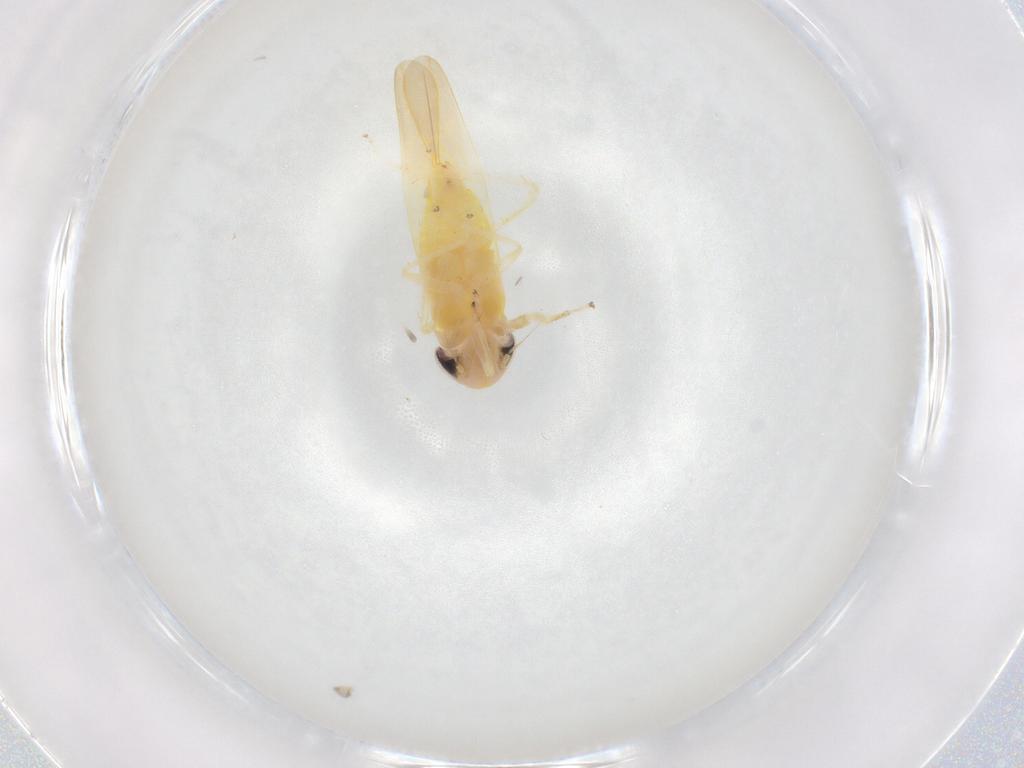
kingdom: Animalia
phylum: Arthropoda
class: Insecta
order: Hemiptera
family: Cicadellidae
